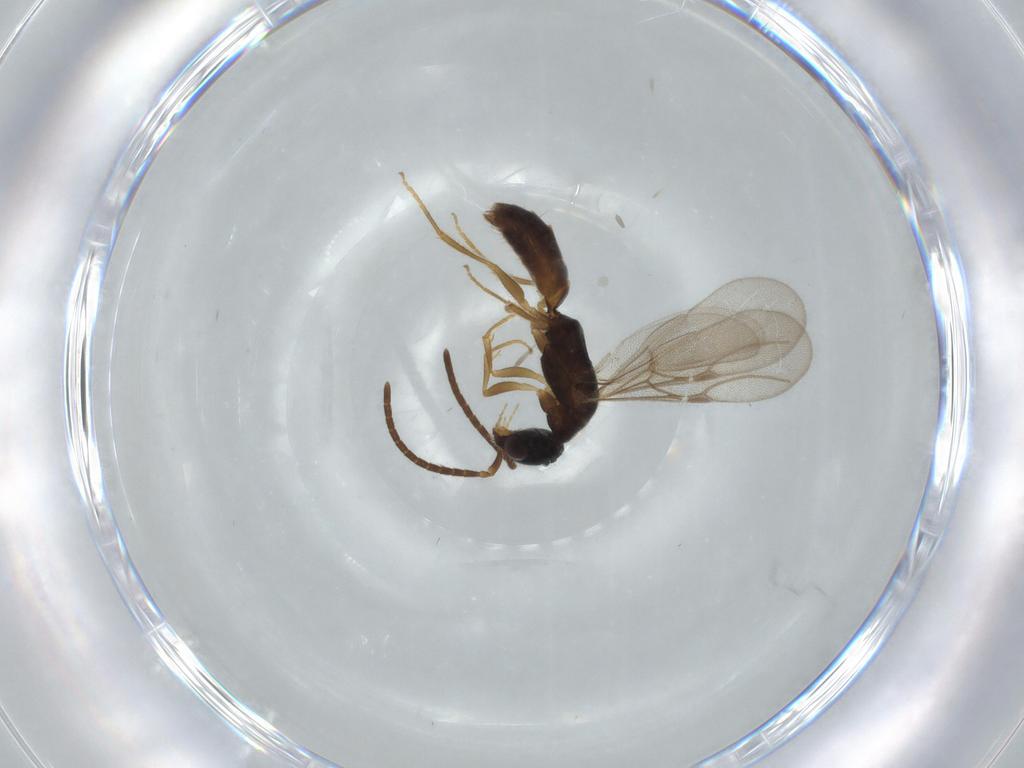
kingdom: Animalia
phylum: Arthropoda
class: Insecta
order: Hymenoptera
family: Bethylidae
